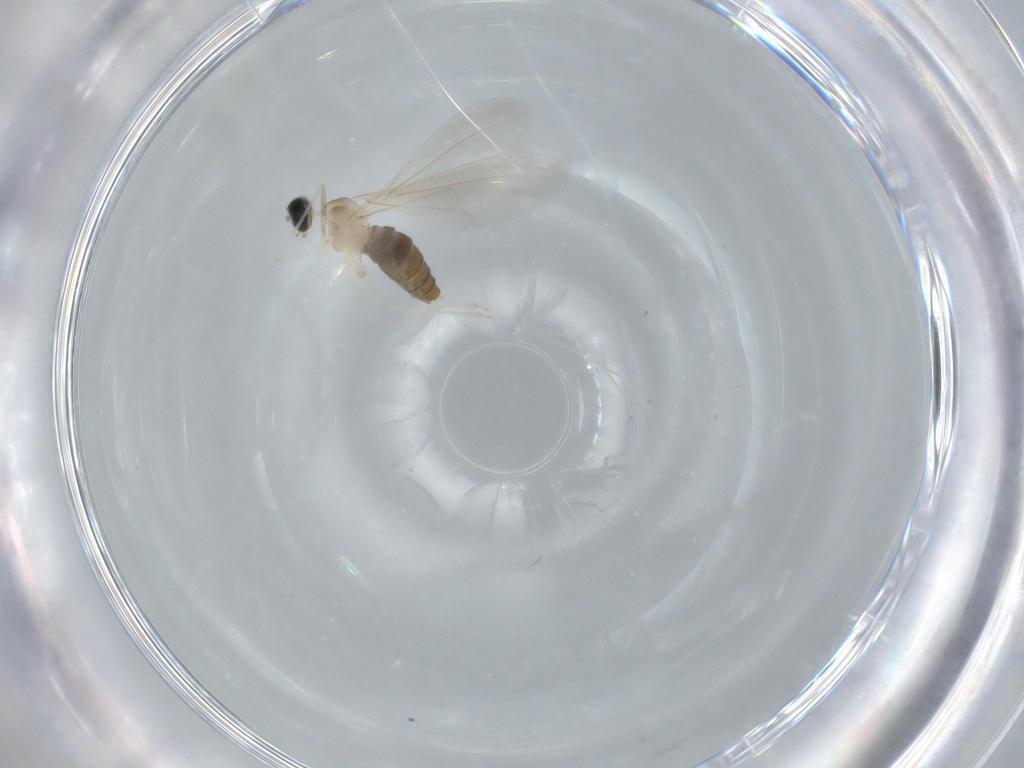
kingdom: Animalia
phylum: Arthropoda
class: Insecta
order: Diptera
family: Cecidomyiidae
